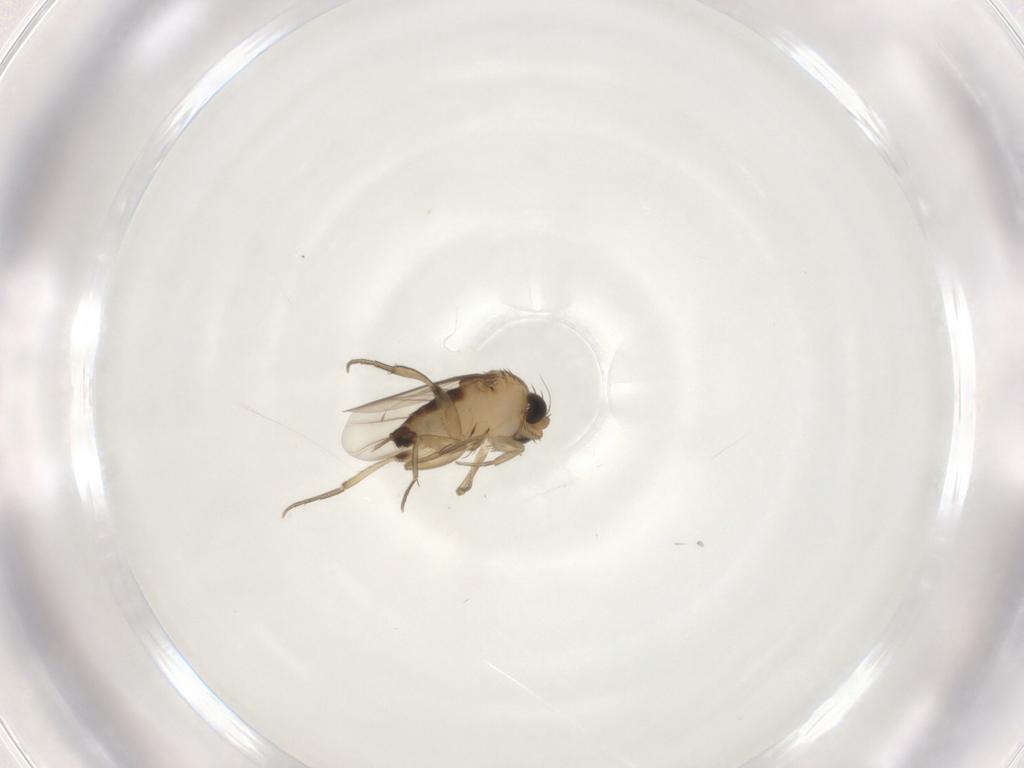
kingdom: Animalia
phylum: Arthropoda
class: Insecta
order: Diptera
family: Phoridae
